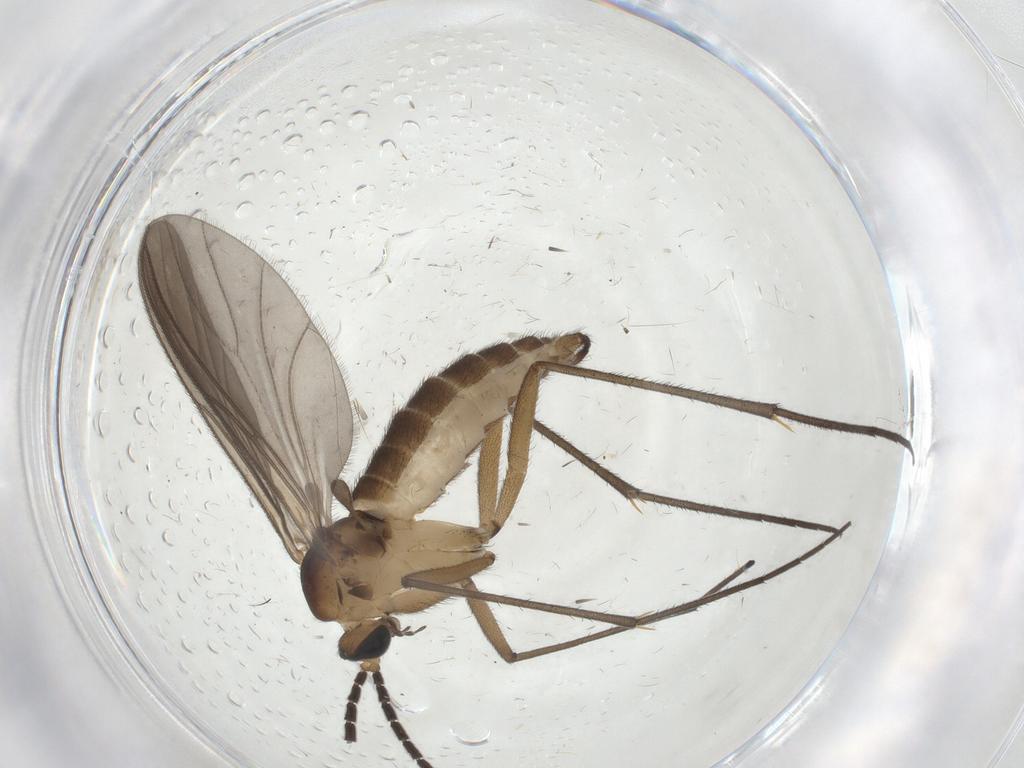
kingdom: Animalia
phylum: Arthropoda
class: Insecta
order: Diptera
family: Sciaridae
